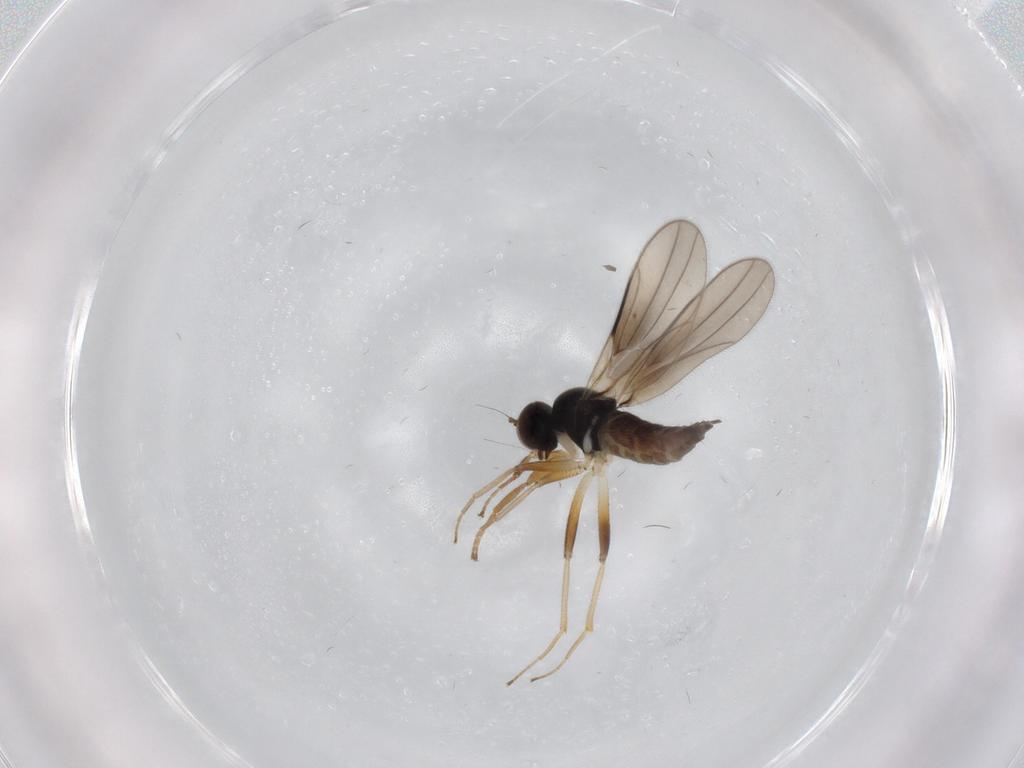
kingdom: Animalia
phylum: Arthropoda
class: Insecta
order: Diptera
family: Hybotidae
